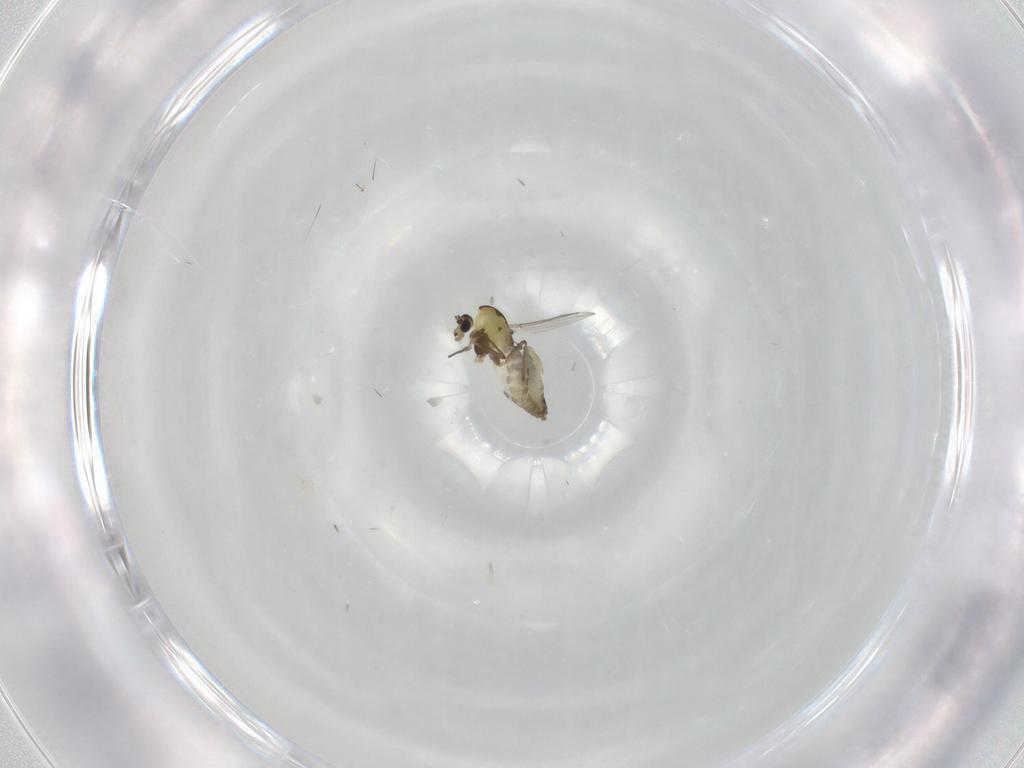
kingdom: Animalia
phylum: Arthropoda
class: Insecta
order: Diptera
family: Chironomidae
